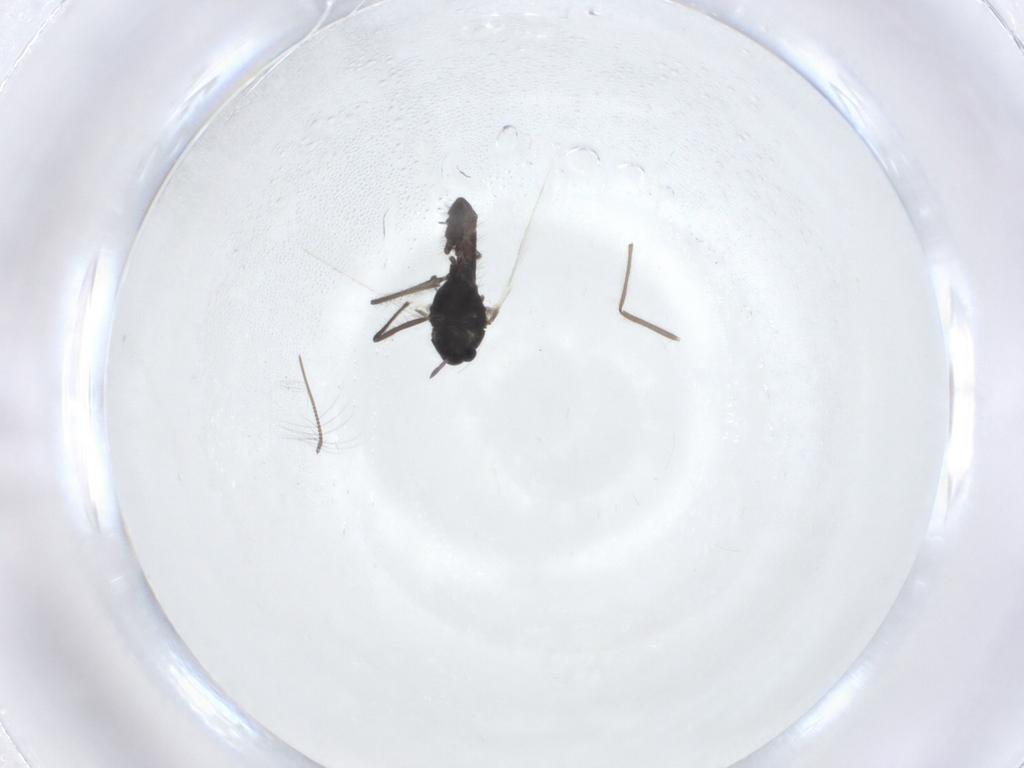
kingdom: Animalia
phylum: Arthropoda
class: Insecta
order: Diptera
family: Chironomidae
